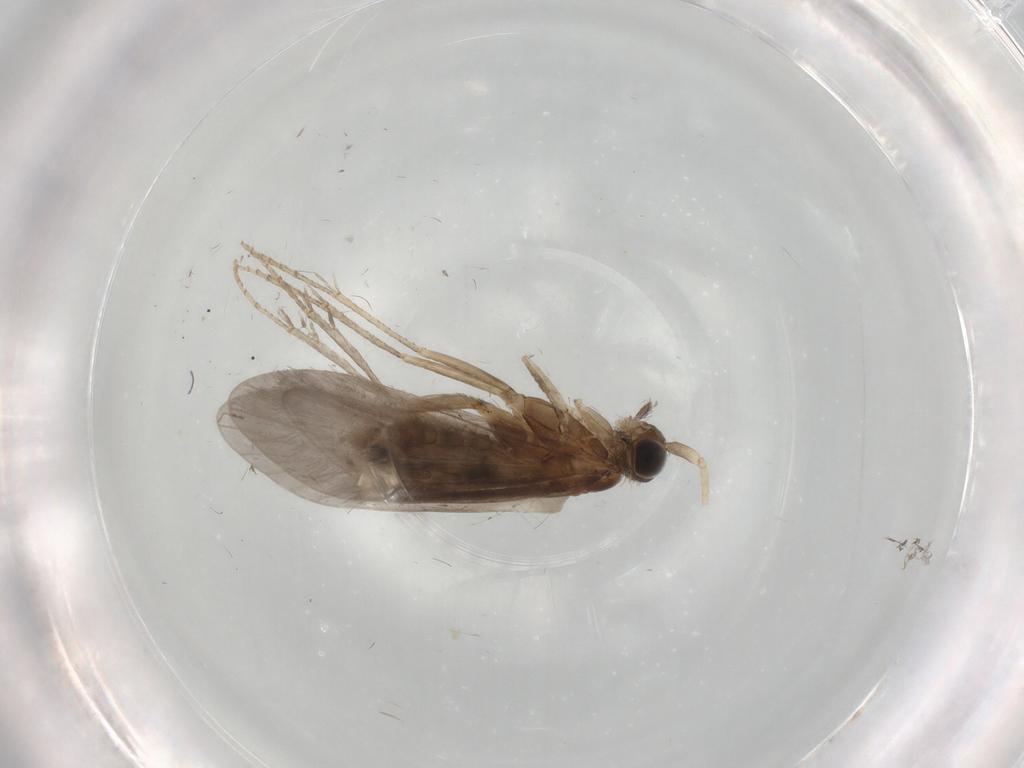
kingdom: Animalia
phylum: Arthropoda
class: Insecta
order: Trichoptera
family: Helicopsychidae
